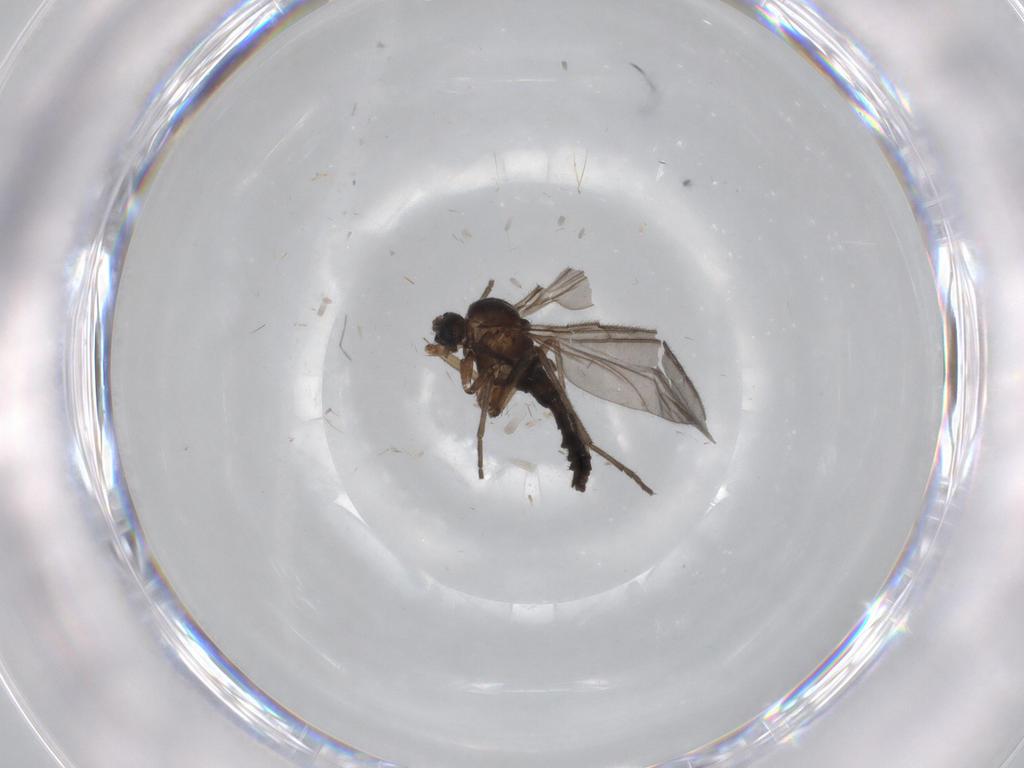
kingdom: Animalia
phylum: Arthropoda
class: Insecta
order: Diptera
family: Sciaridae
